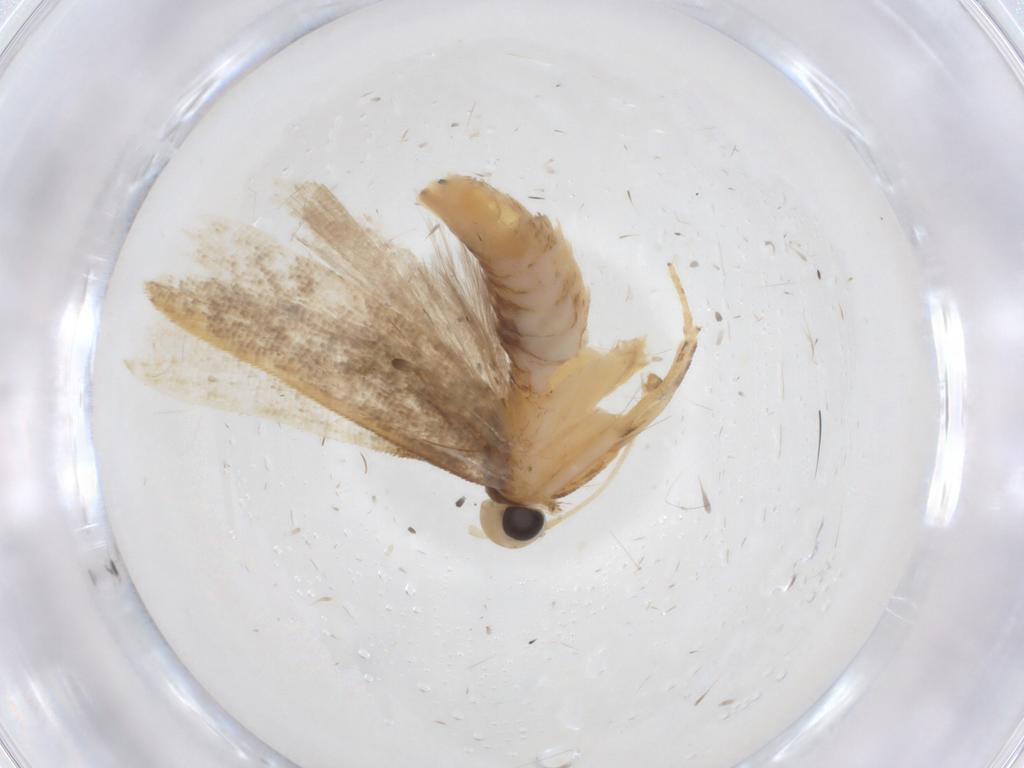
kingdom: Animalia
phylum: Arthropoda
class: Insecta
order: Lepidoptera
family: Gelechiidae
